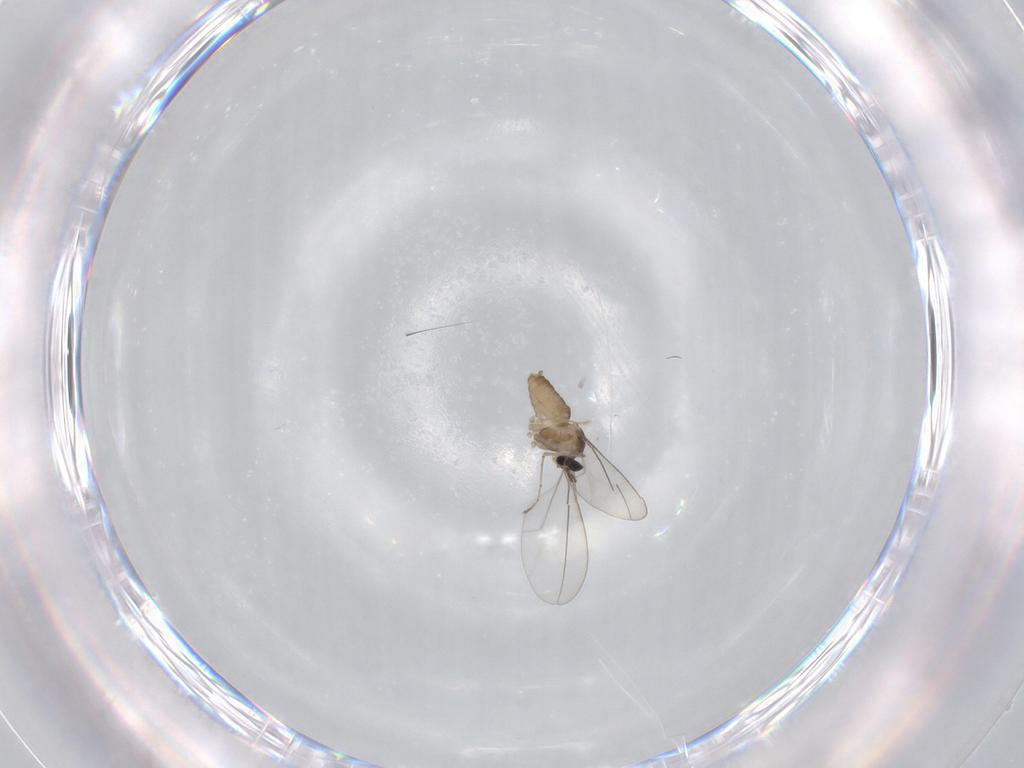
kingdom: Animalia
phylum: Arthropoda
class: Insecta
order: Diptera
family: Cecidomyiidae
